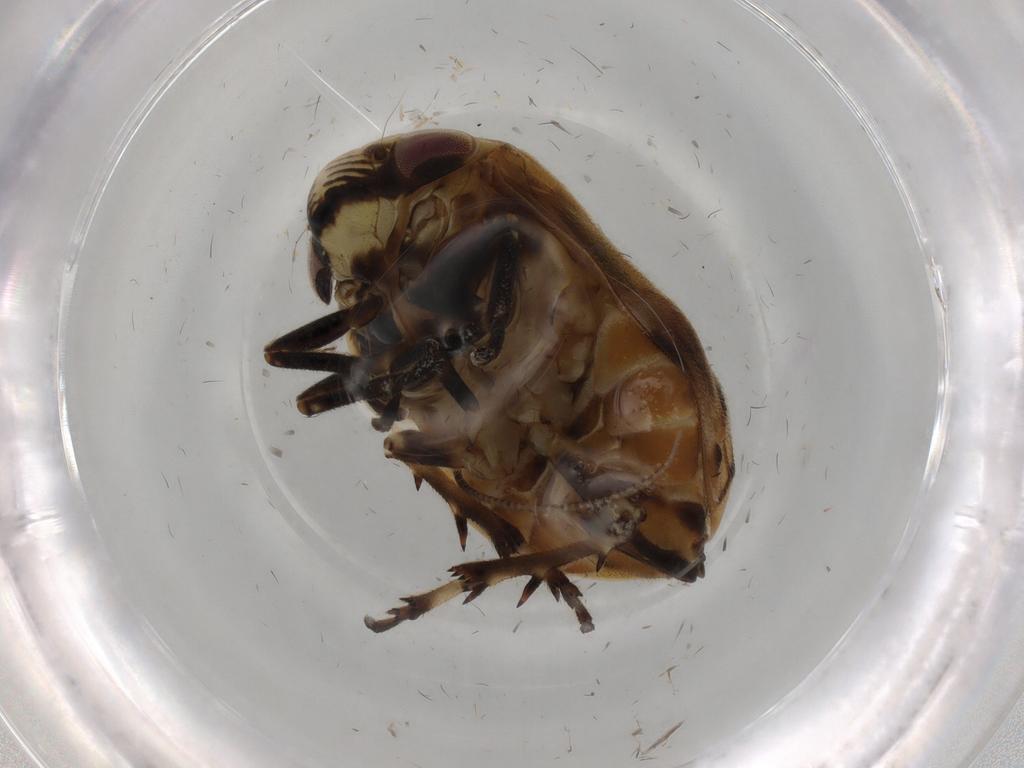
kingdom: Animalia
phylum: Arthropoda
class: Insecta
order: Hemiptera
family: Clastopteridae
